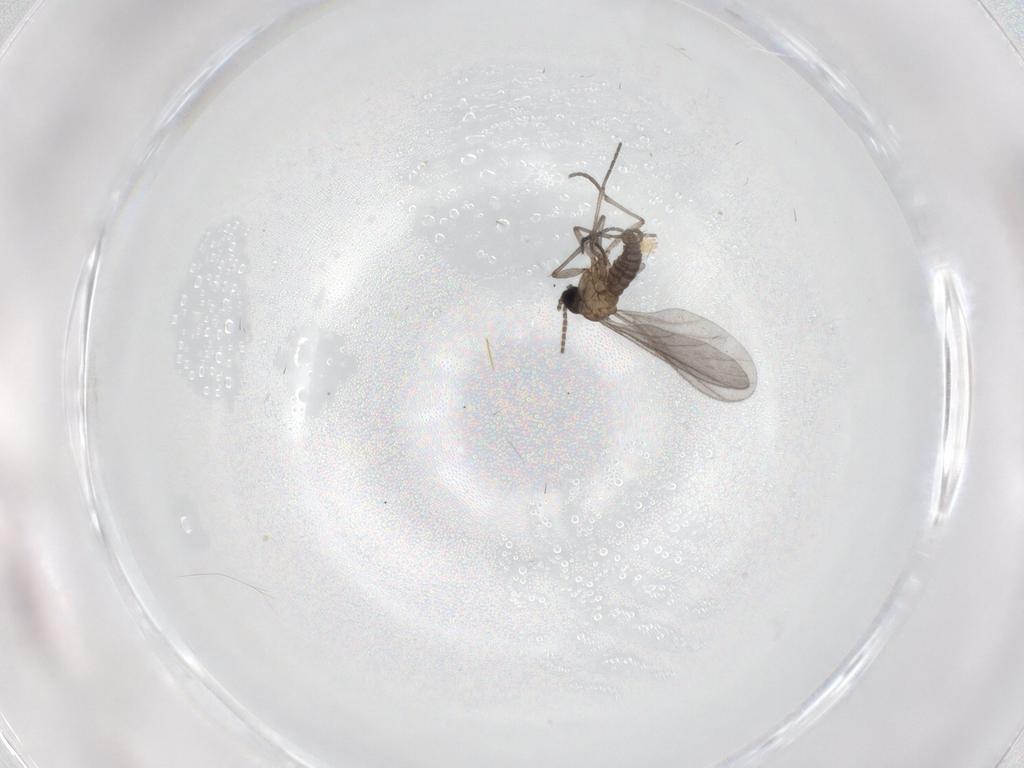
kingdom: Animalia
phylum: Arthropoda
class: Insecta
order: Diptera
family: Sciaridae
